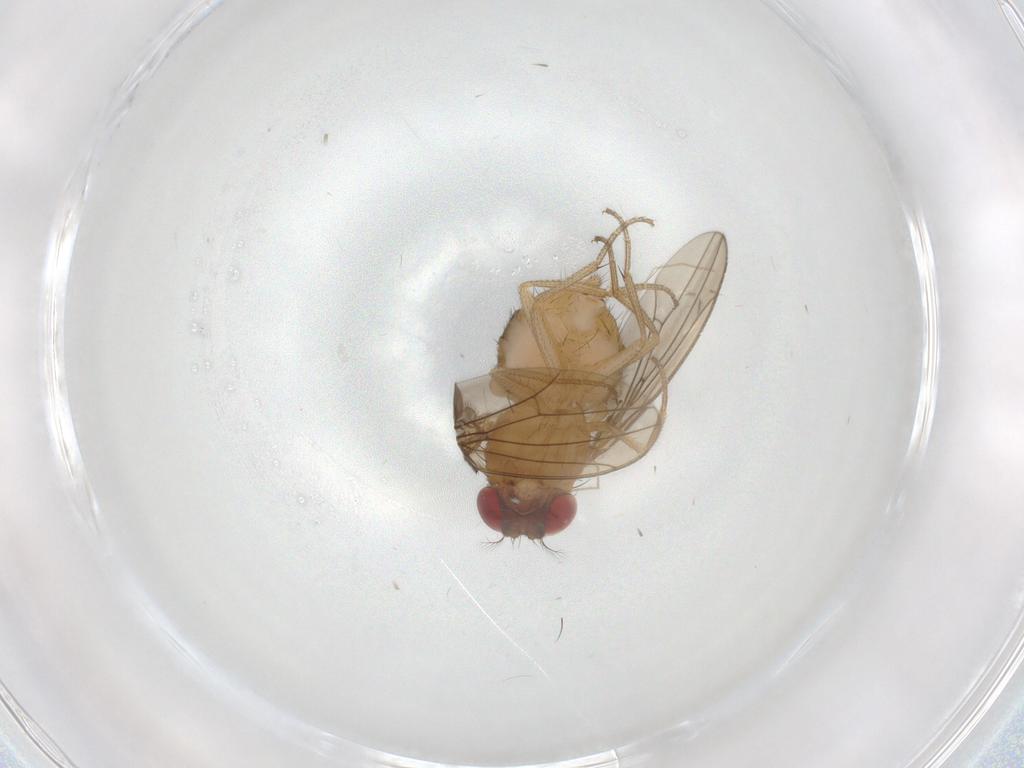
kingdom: Animalia
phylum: Arthropoda
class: Insecta
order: Diptera
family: Drosophilidae
